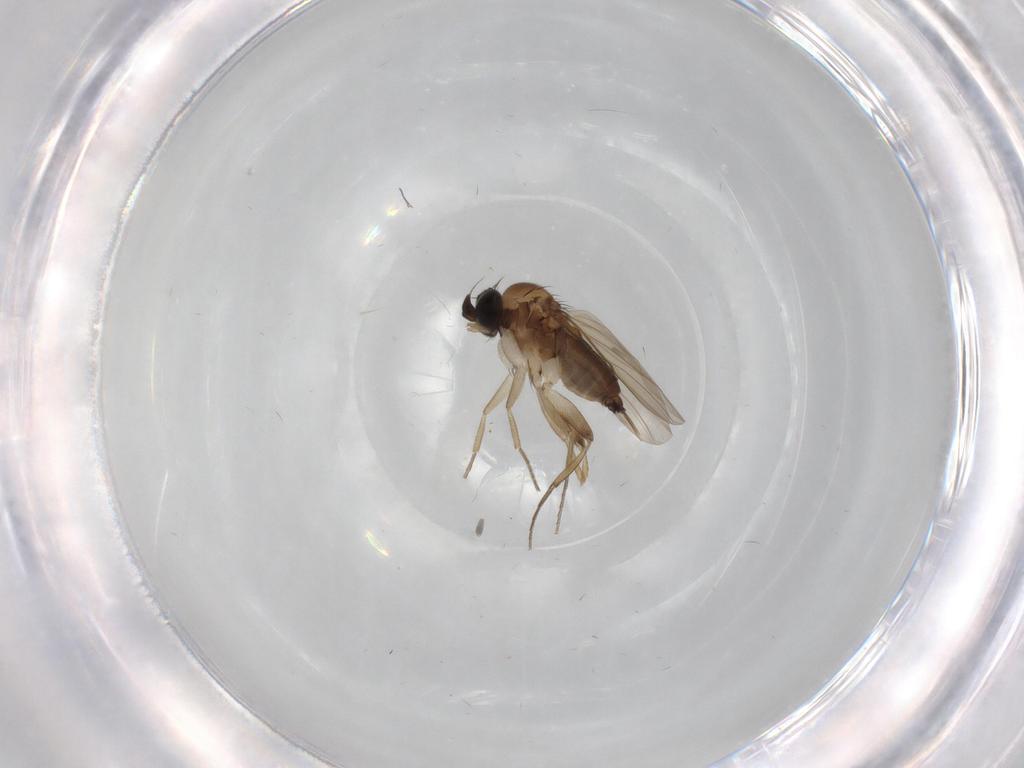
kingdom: Animalia
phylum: Arthropoda
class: Insecta
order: Diptera
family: Phoridae
